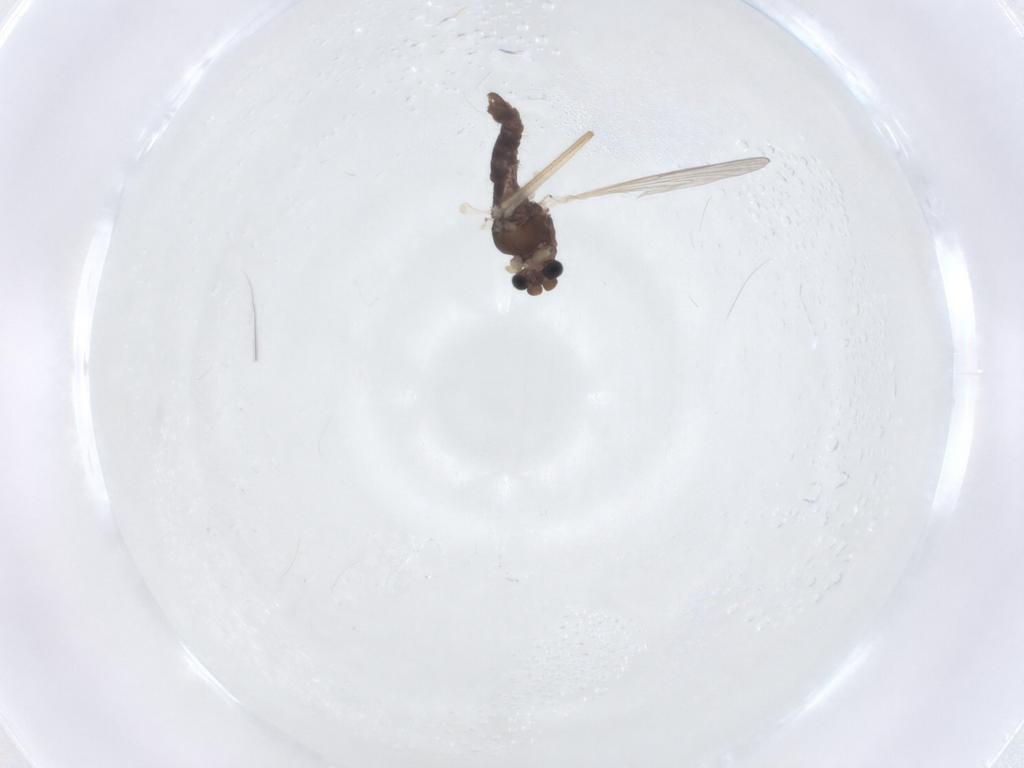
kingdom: Animalia
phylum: Arthropoda
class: Insecta
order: Diptera
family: Chironomidae
